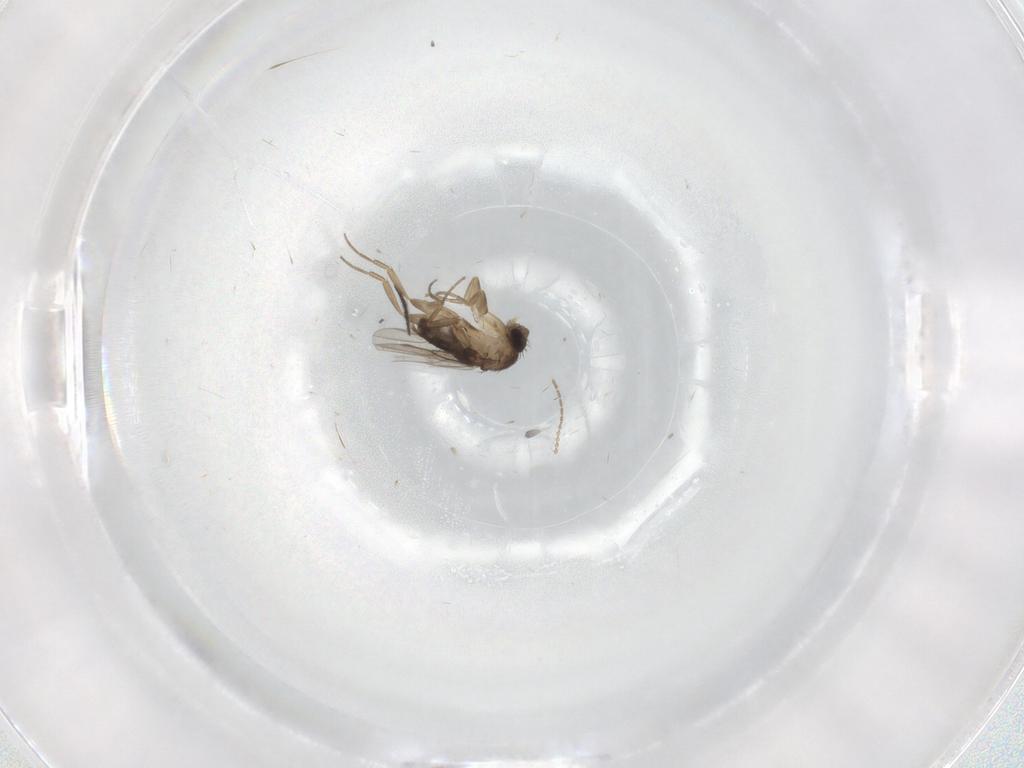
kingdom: Animalia
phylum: Arthropoda
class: Insecta
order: Diptera
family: Phoridae
